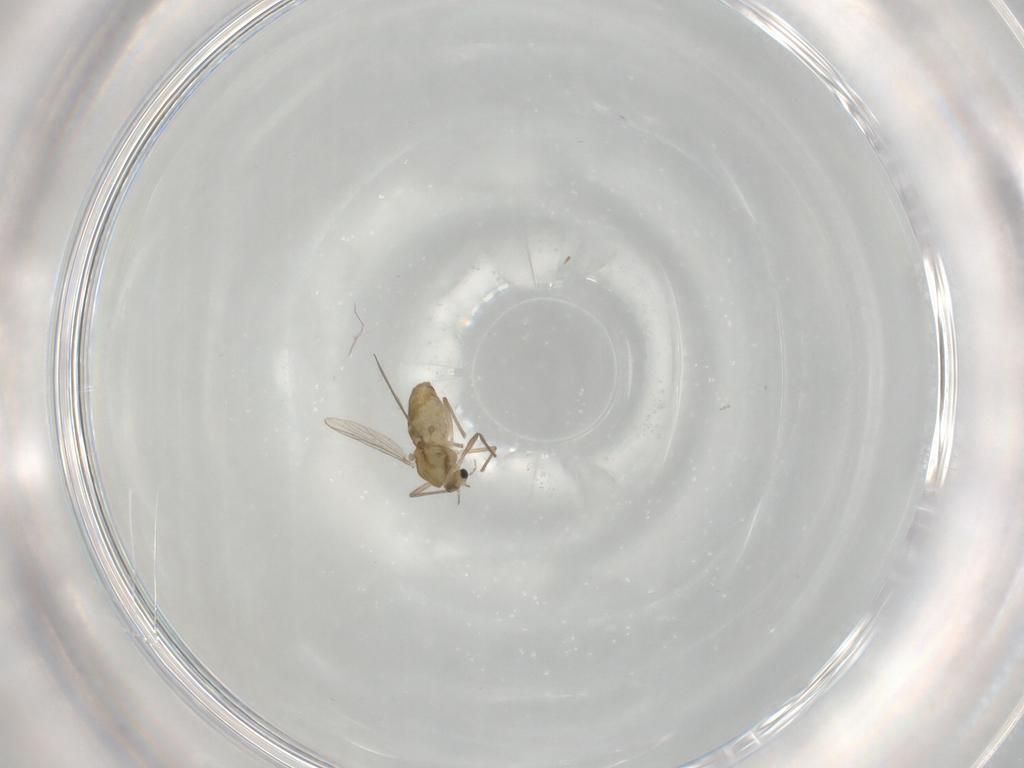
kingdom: Animalia
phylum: Arthropoda
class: Insecta
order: Diptera
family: Chironomidae
